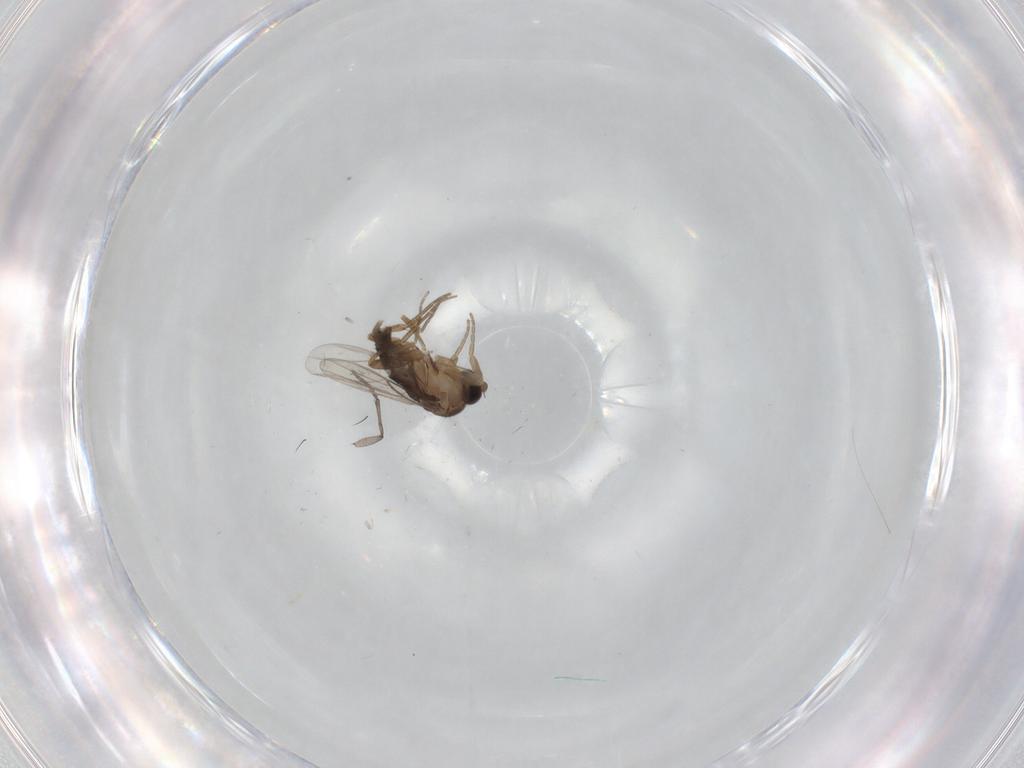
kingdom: Animalia
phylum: Arthropoda
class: Insecta
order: Diptera
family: Sciaridae
